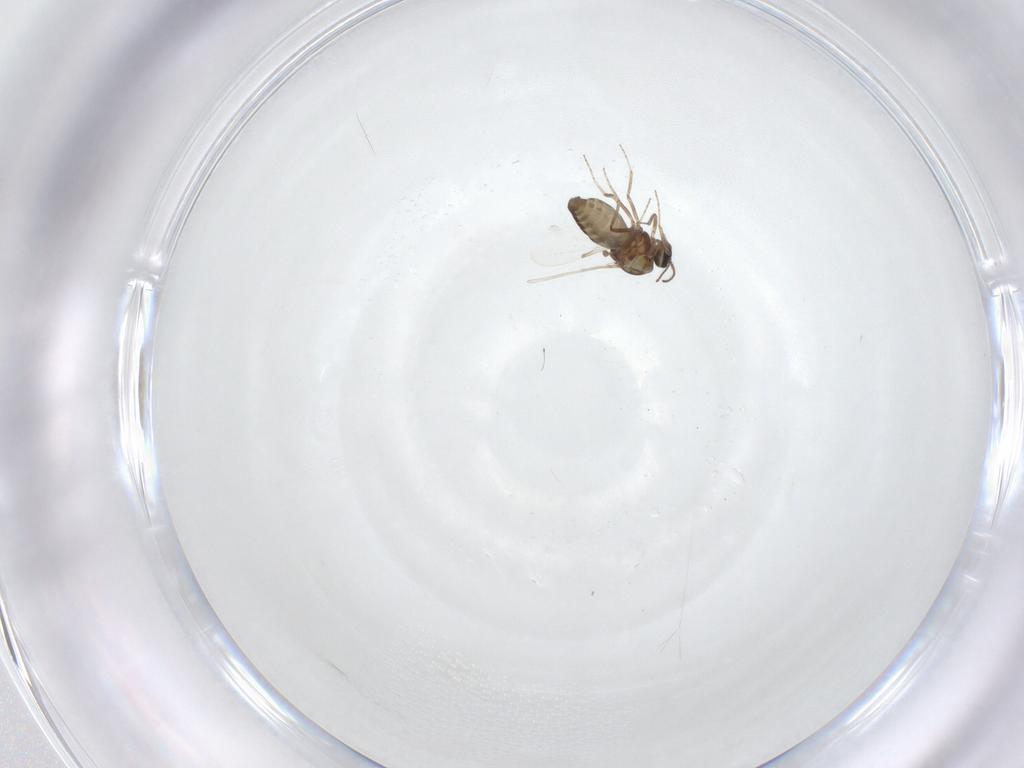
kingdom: Animalia
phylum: Arthropoda
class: Insecta
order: Diptera
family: Ceratopogonidae
